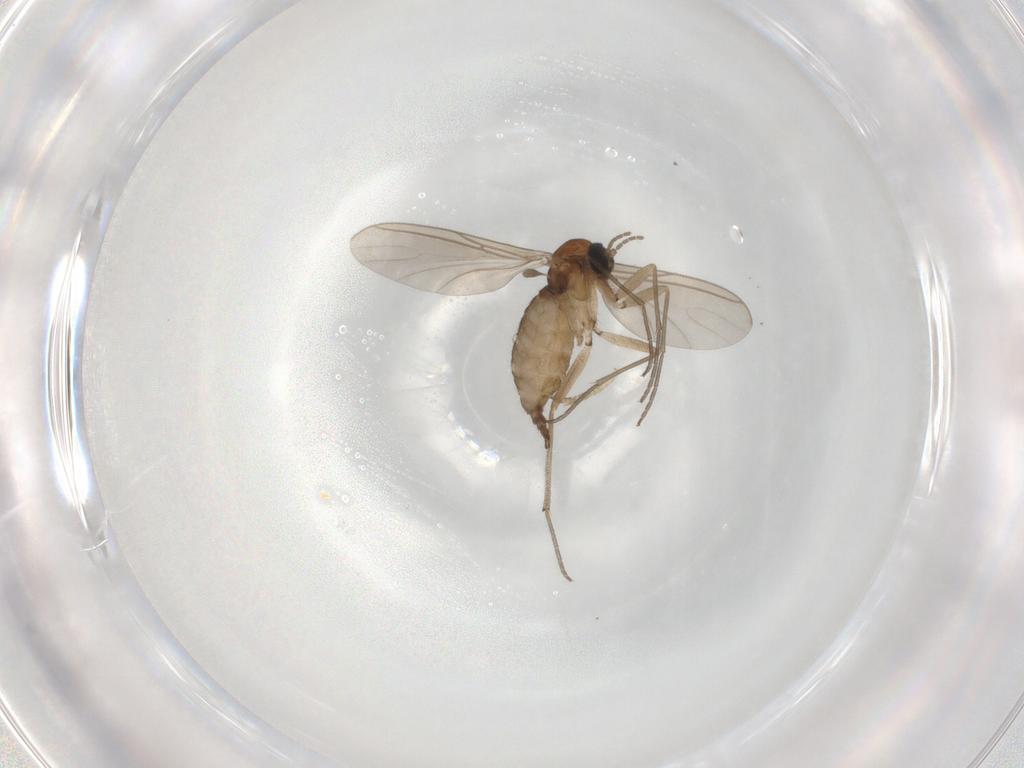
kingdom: Animalia
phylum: Arthropoda
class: Insecta
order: Diptera
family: Sciaridae
